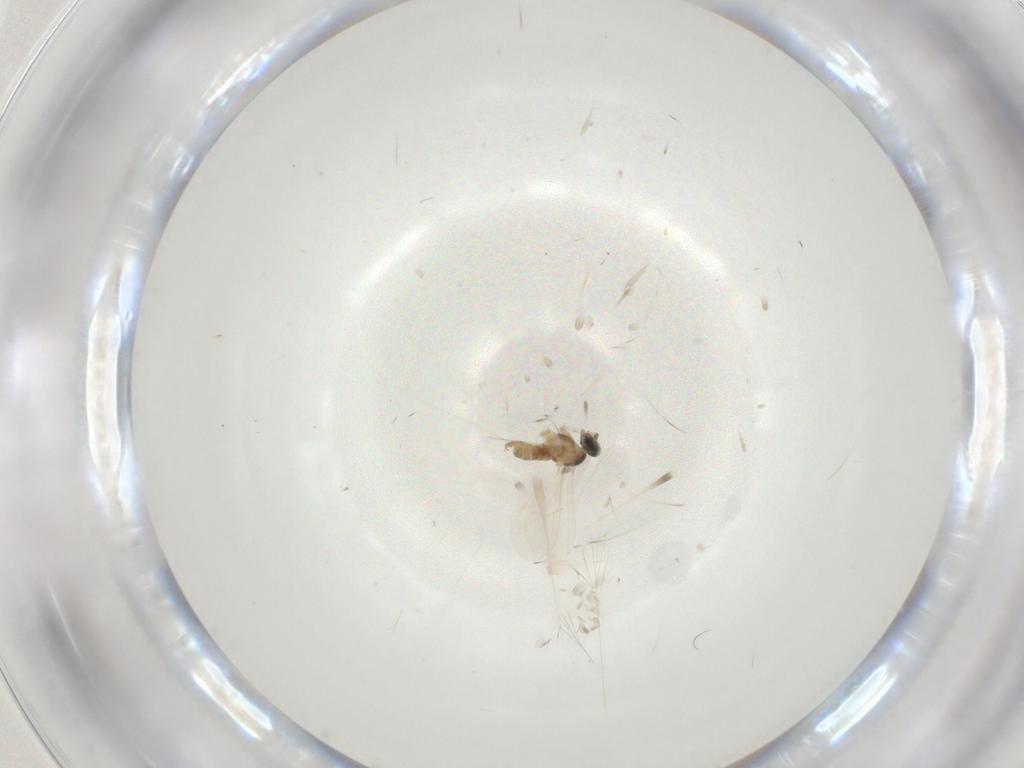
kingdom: Animalia
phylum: Arthropoda
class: Insecta
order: Diptera
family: Cecidomyiidae
